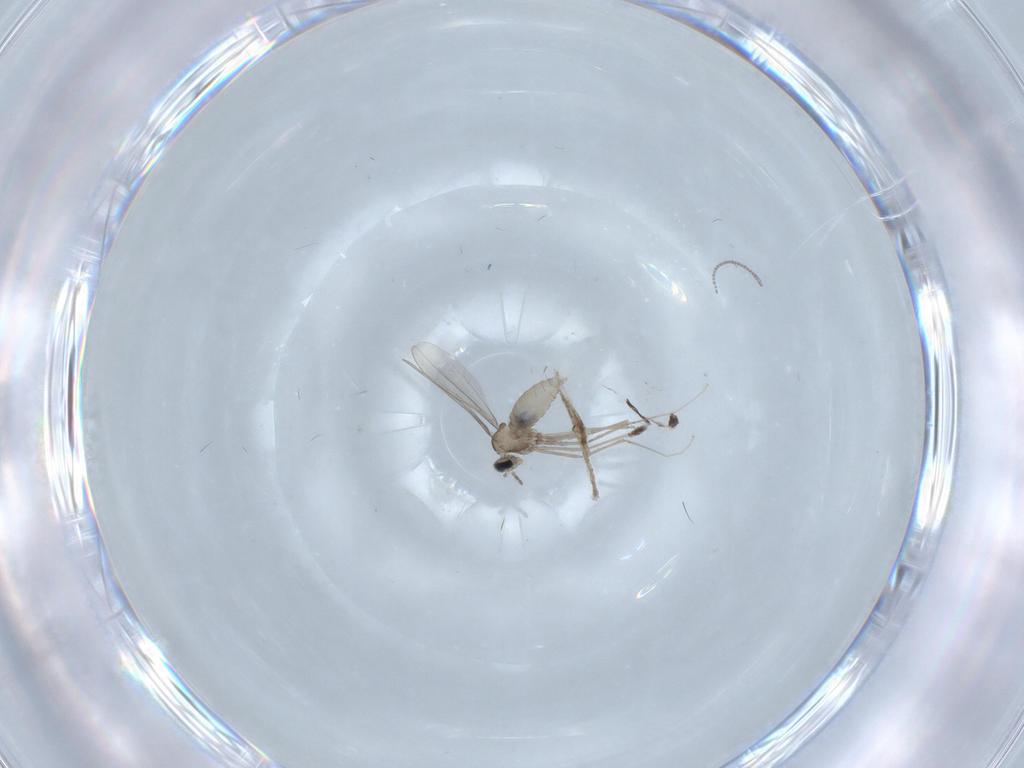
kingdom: Animalia
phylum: Arthropoda
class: Insecta
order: Diptera
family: Cecidomyiidae
